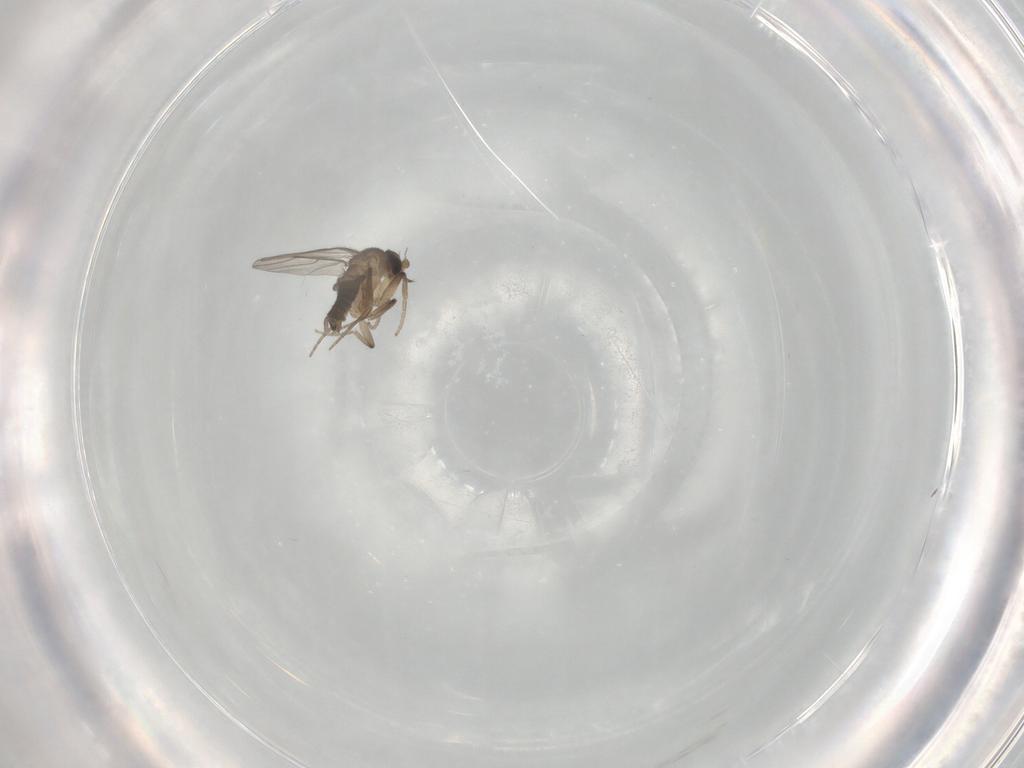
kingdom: Animalia
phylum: Arthropoda
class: Insecta
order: Diptera
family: Phoridae
